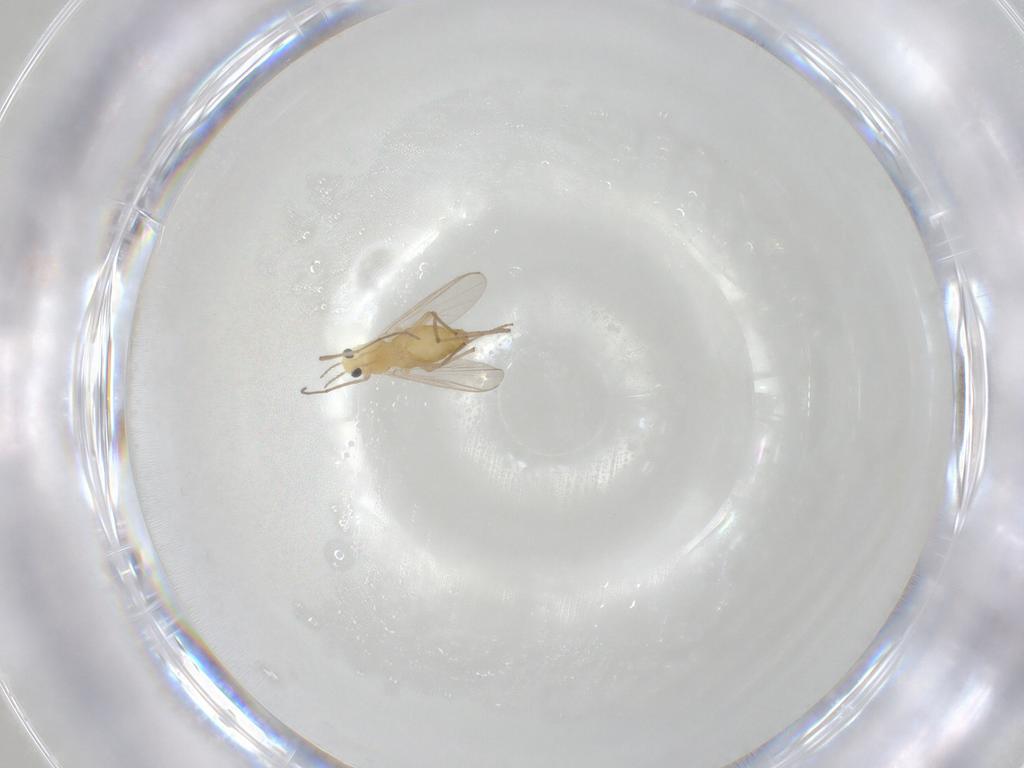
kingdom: Animalia
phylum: Arthropoda
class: Insecta
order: Diptera
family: Chironomidae
